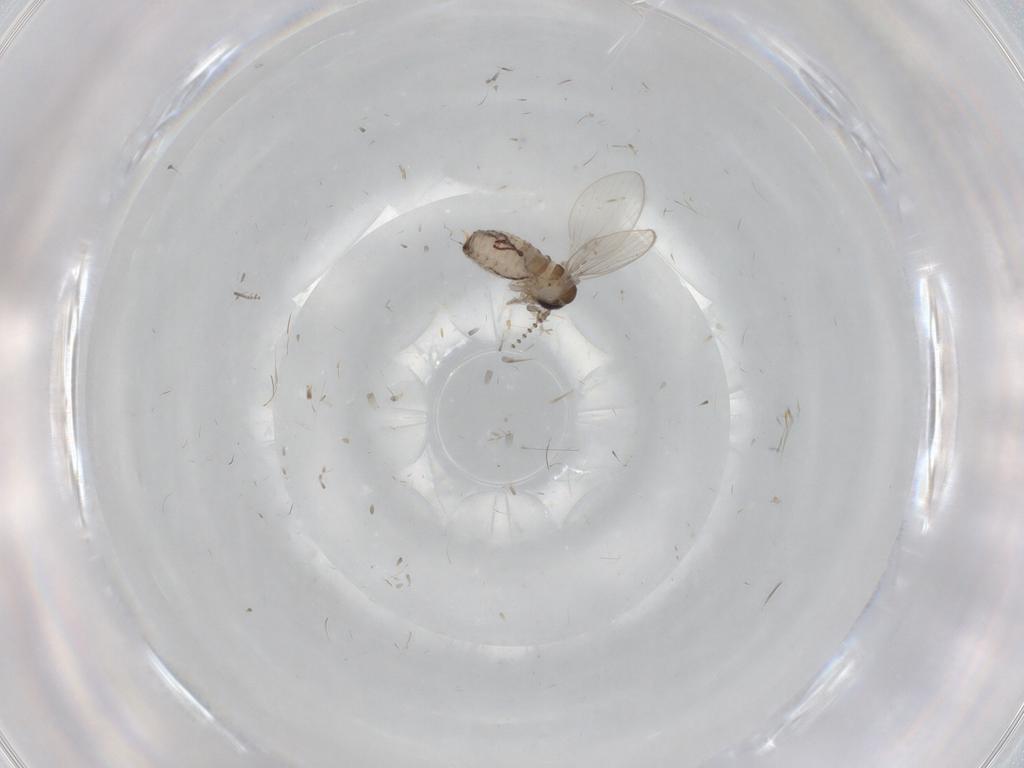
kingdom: Animalia
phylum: Arthropoda
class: Insecta
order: Diptera
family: Psychodidae
